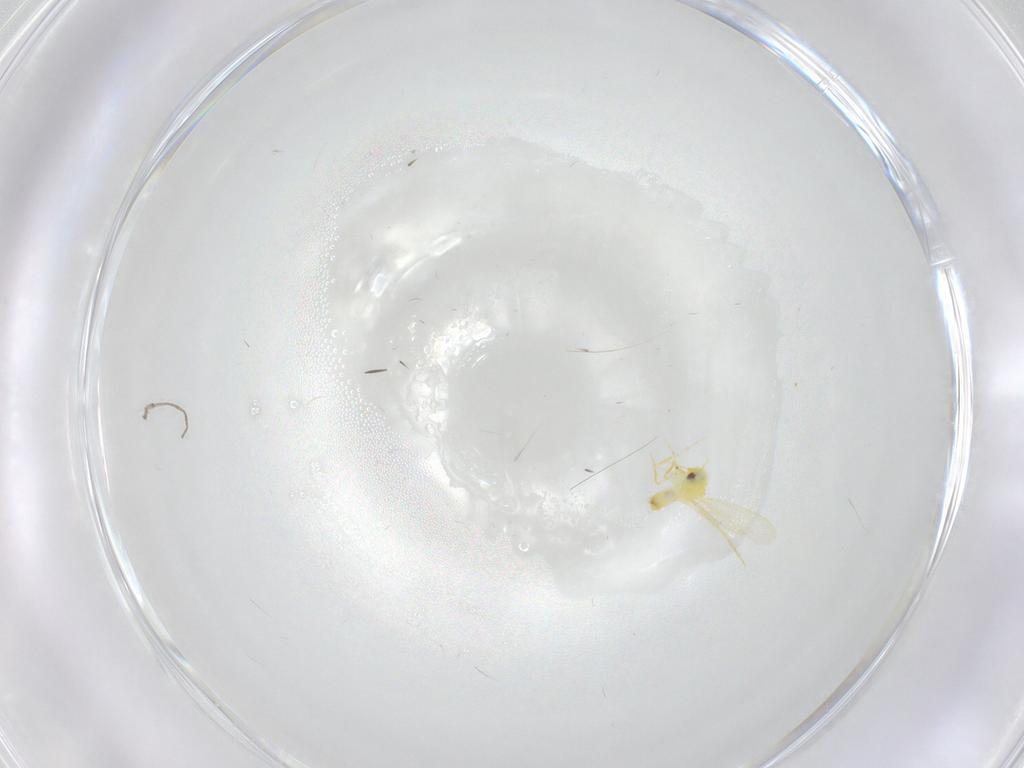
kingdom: Animalia
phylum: Arthropoda
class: Insecta
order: Hemiptera
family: Aleyrodidae
